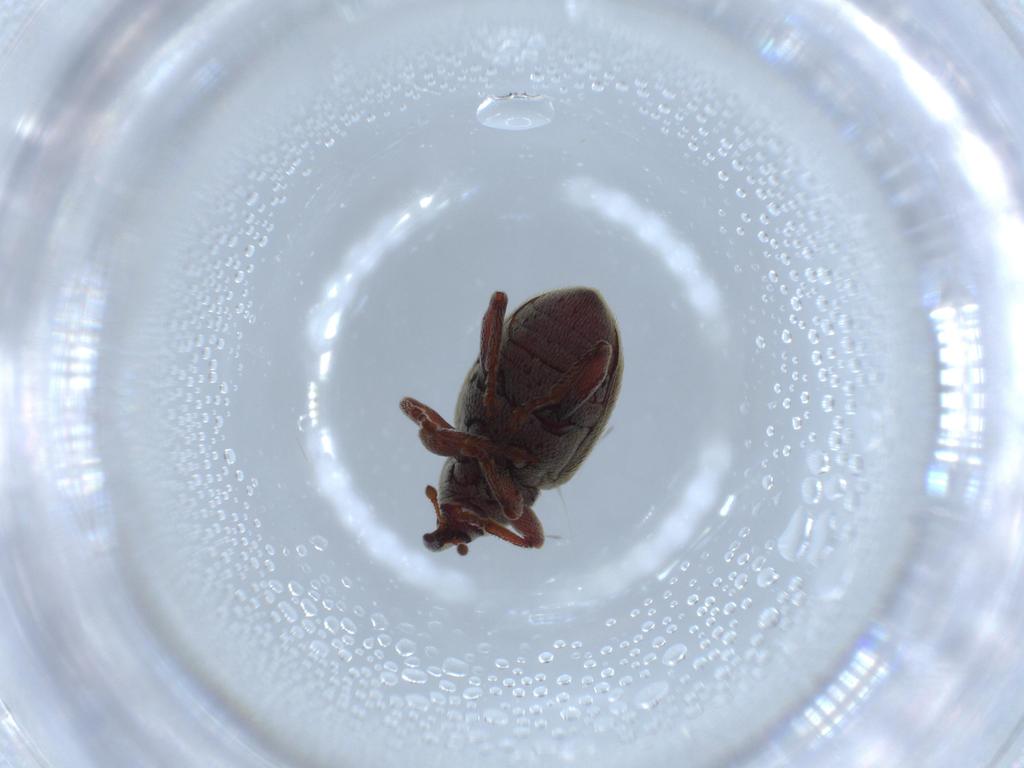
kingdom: Animalia
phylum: Arthropoda
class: Insecta
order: Coleoptera
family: Curculionidae
